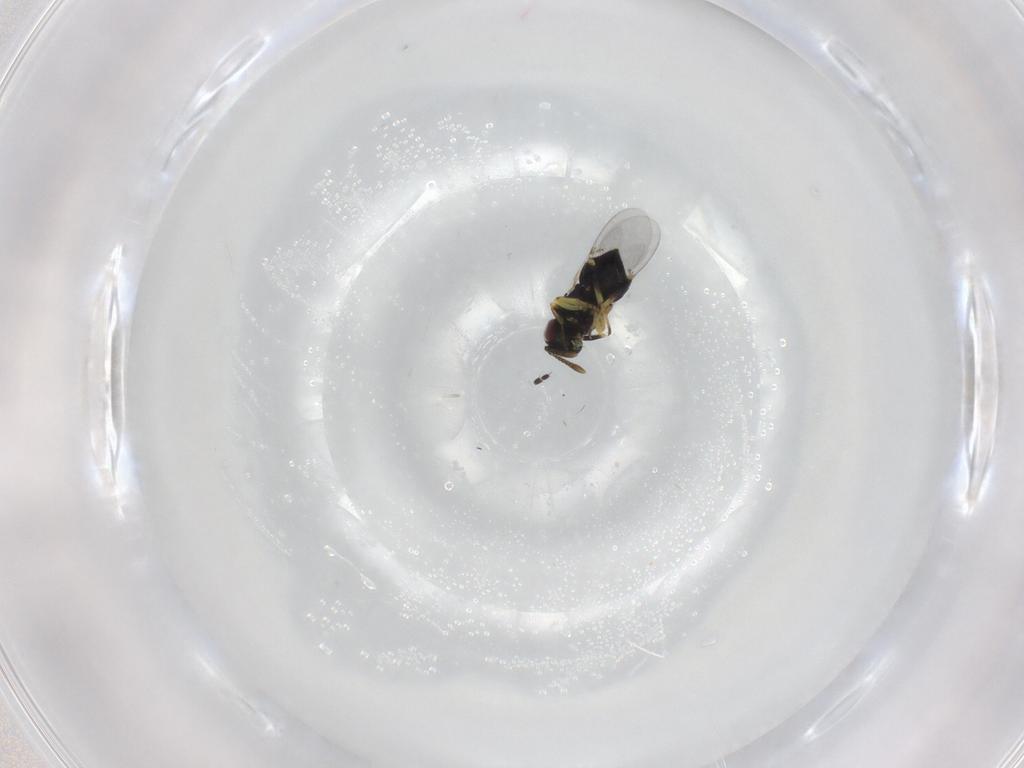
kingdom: Animalia
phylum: Arthropoda
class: Insecta
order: Hymenoptera
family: Encyrtidae
